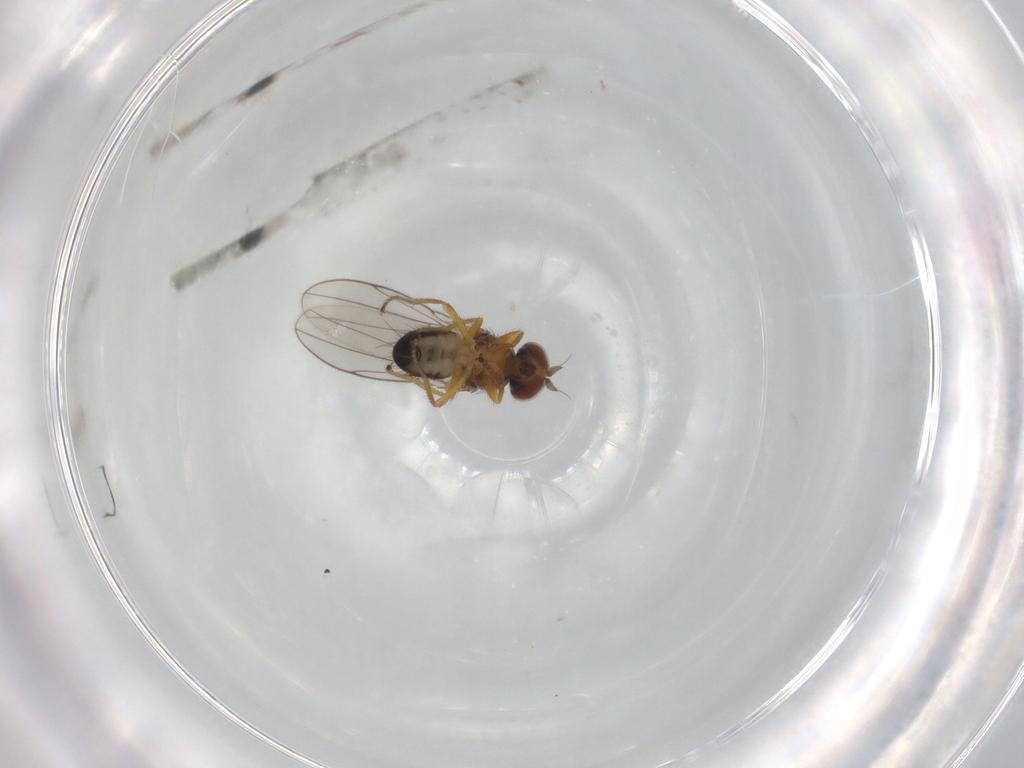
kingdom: Animalia
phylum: Arthropoda
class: Insecta
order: Diptera
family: Ephydridae
